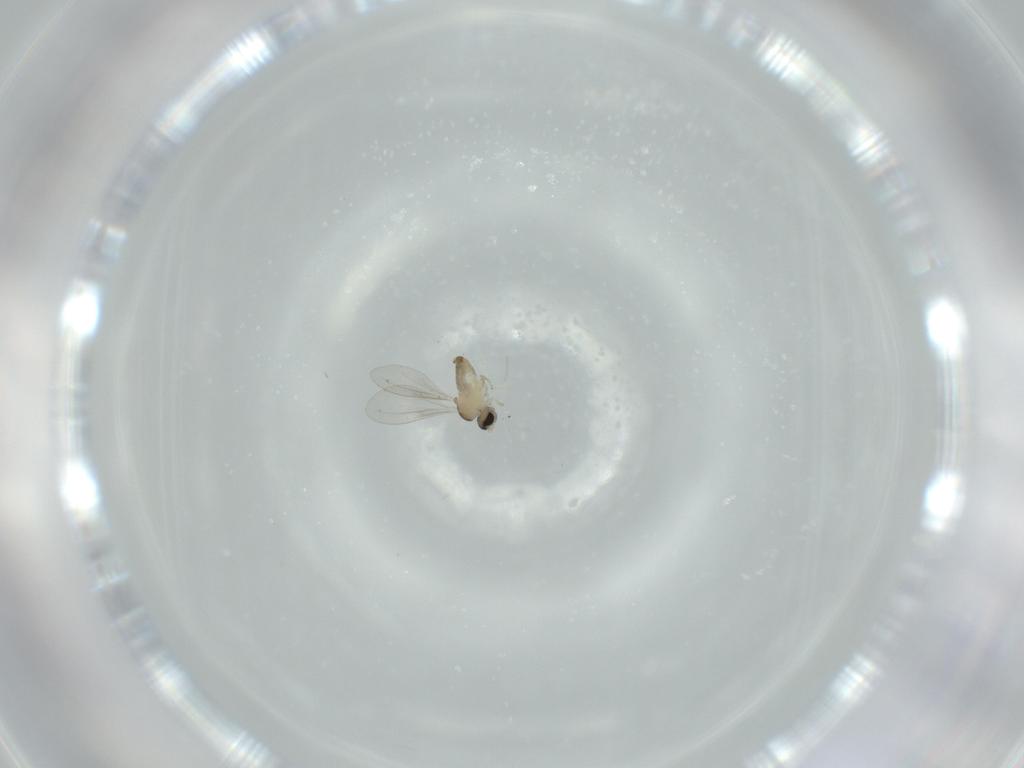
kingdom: Animalia
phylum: Arthropoda
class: Insecta
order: Diptera
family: Cecidomyiidae
